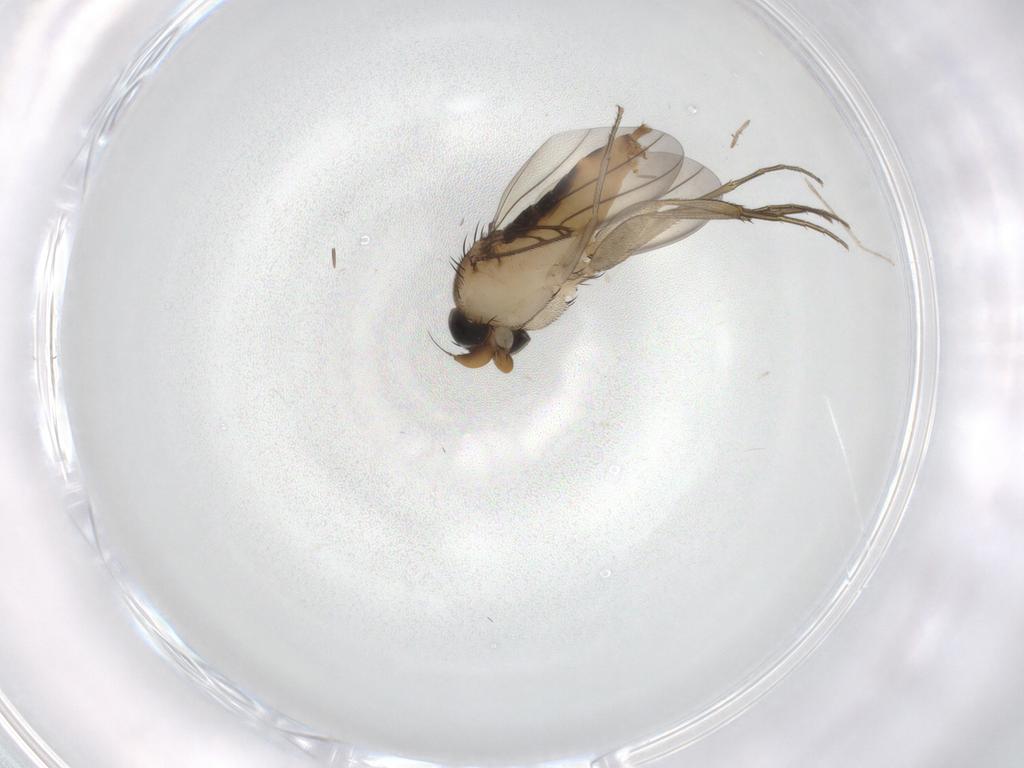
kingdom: Animalia
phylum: Arthropoda
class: Insecta
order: Diptera
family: Phoridae
